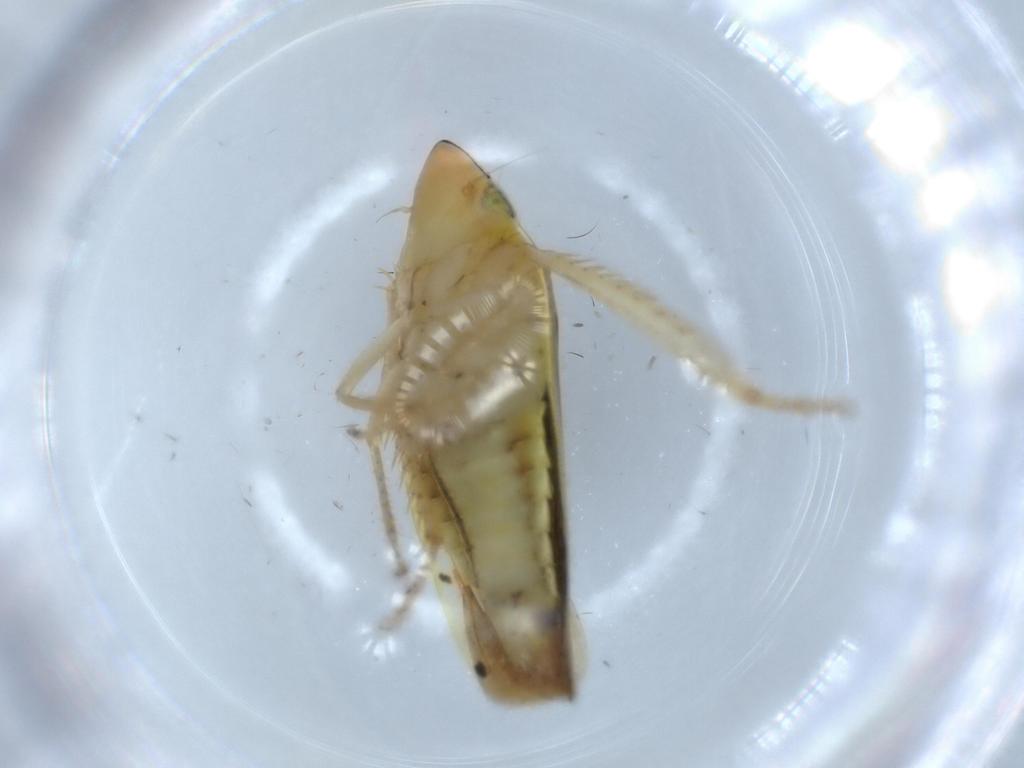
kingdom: Animalia
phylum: Arthropoda
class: Insecta
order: Hemiptera
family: Cicadellidae
